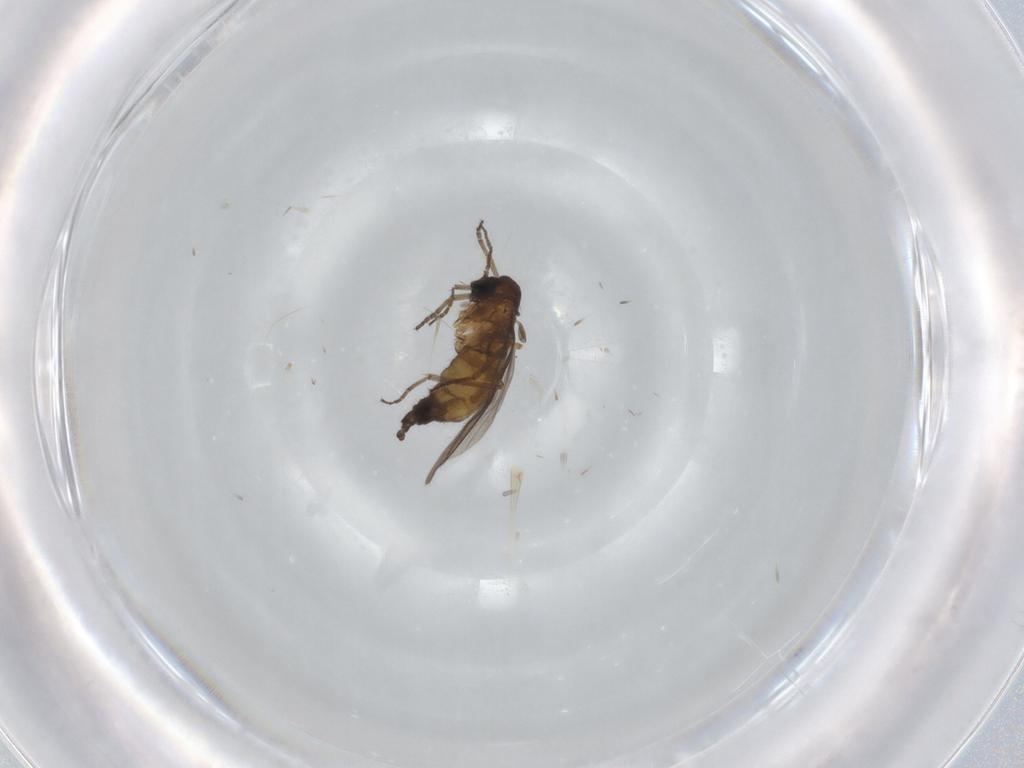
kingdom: Animalia
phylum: Arthropoda
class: Insecta
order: Diptera
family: Sciaridae
